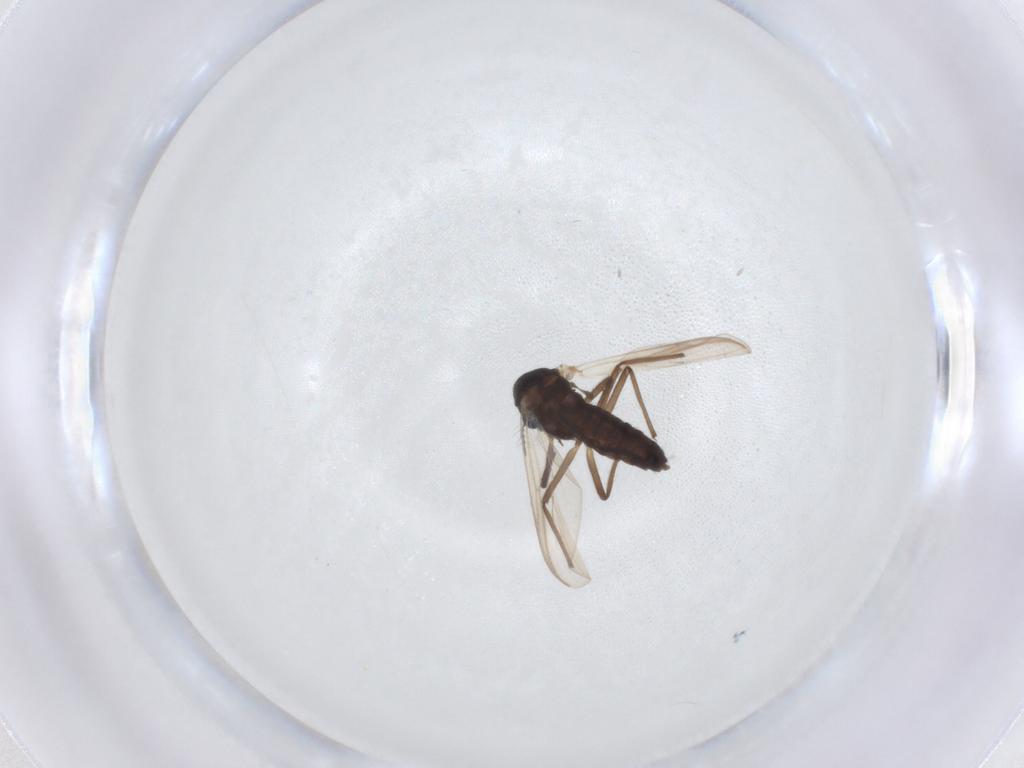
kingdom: Animalia
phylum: Arthropoda
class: Insecta
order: Diptera
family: Chironomidae
